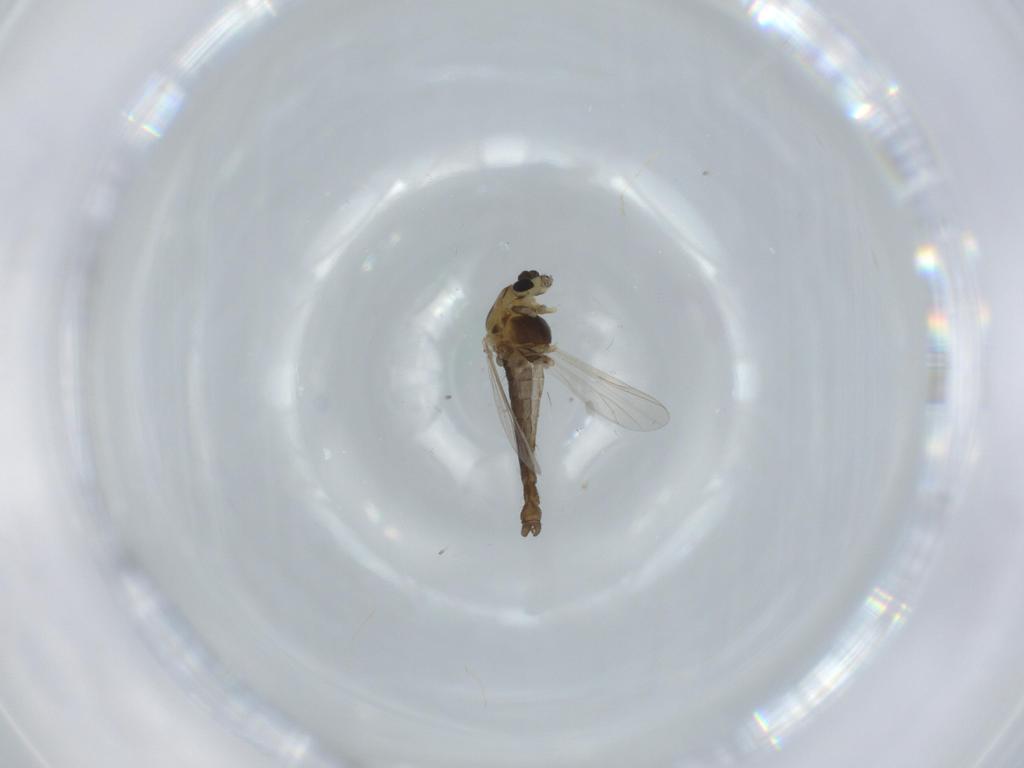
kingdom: Animalia
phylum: Arthropoda
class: Insecta
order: Diptera
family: Chironomidae
